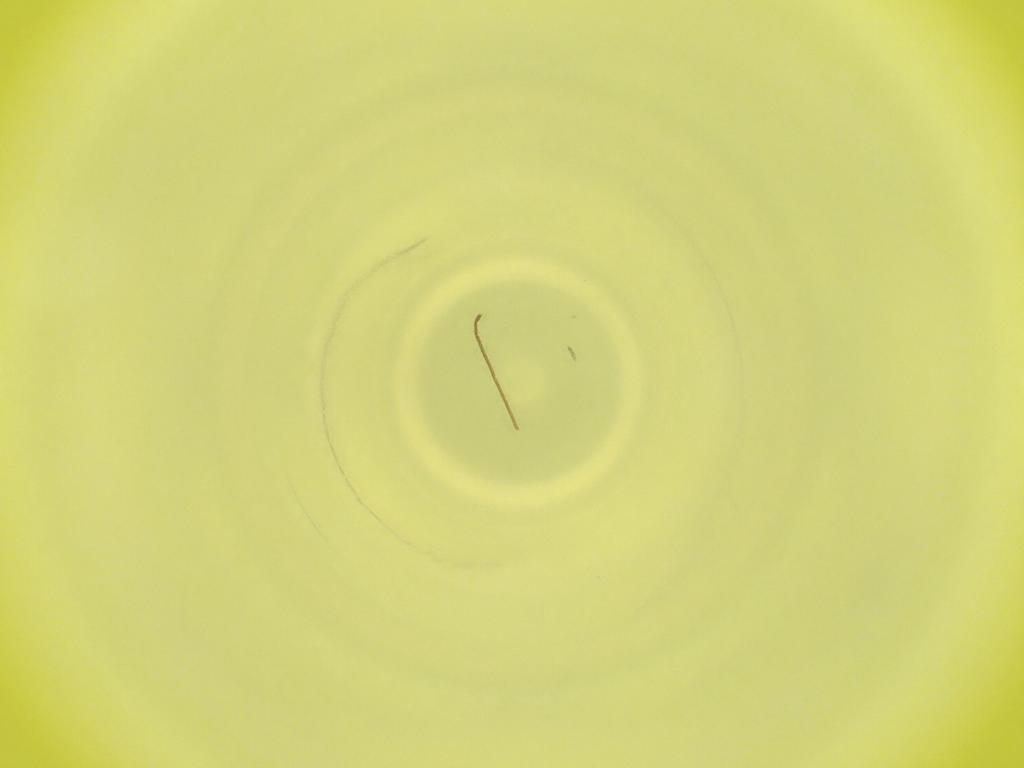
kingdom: Animalia
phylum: Arthropoda
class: Insecta
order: Diptera
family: Cecidomyiidae
